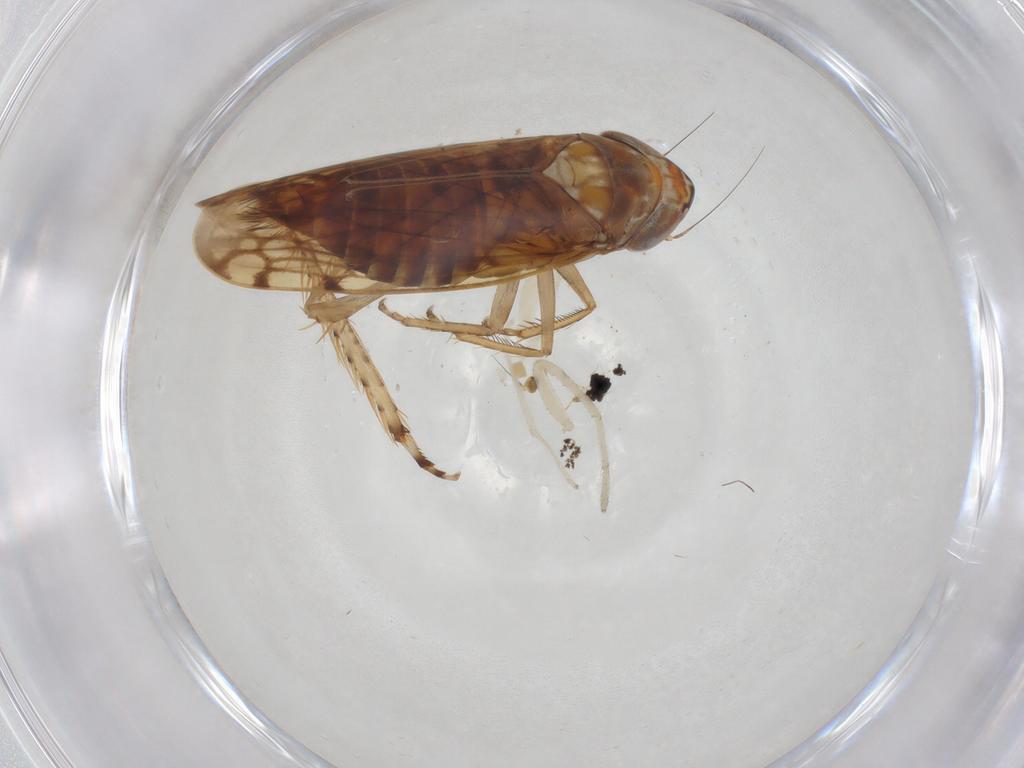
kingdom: Animalia
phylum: Arthropoda
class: Insecta
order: Hemiptera
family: Cicadellidae
